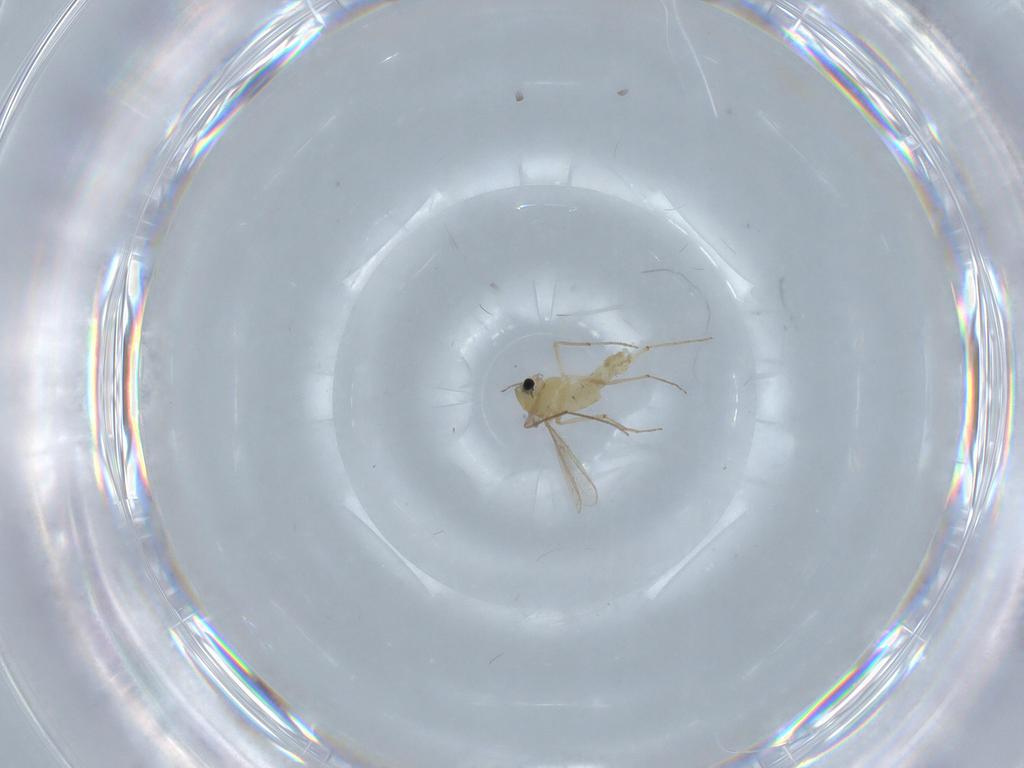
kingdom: Animalia
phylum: Arthropoda
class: Insecta
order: Diptera
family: Chironomidae
